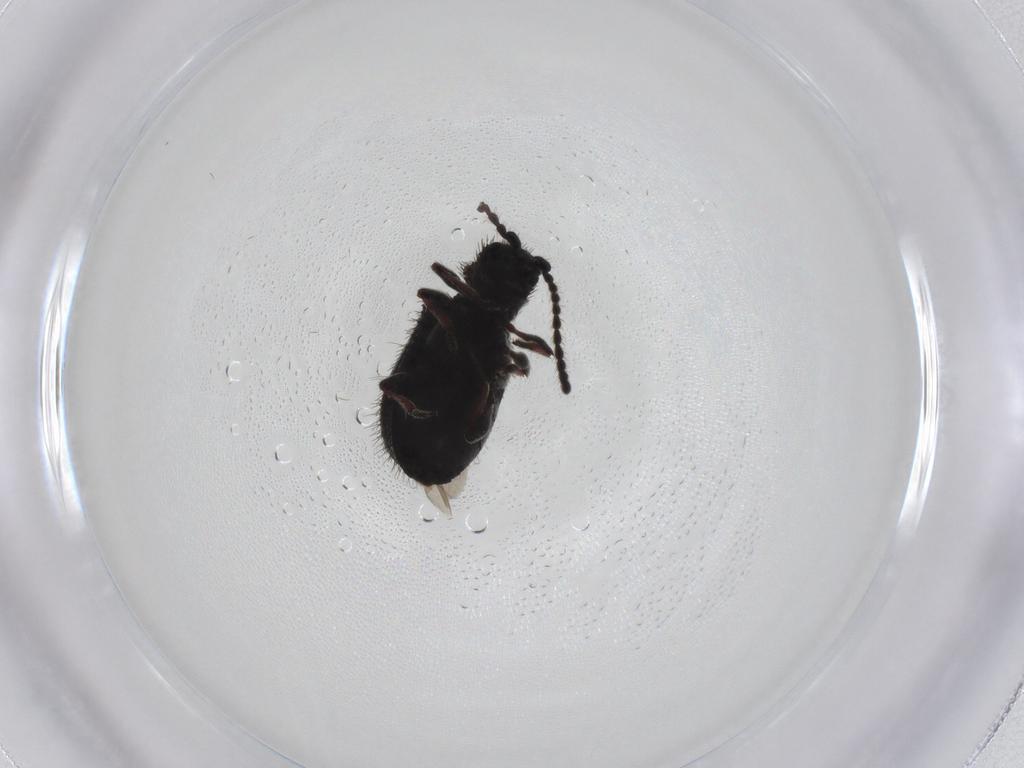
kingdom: Animalia
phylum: Arthropoda
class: Insecta
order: Coleoptera
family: Ptinidae
